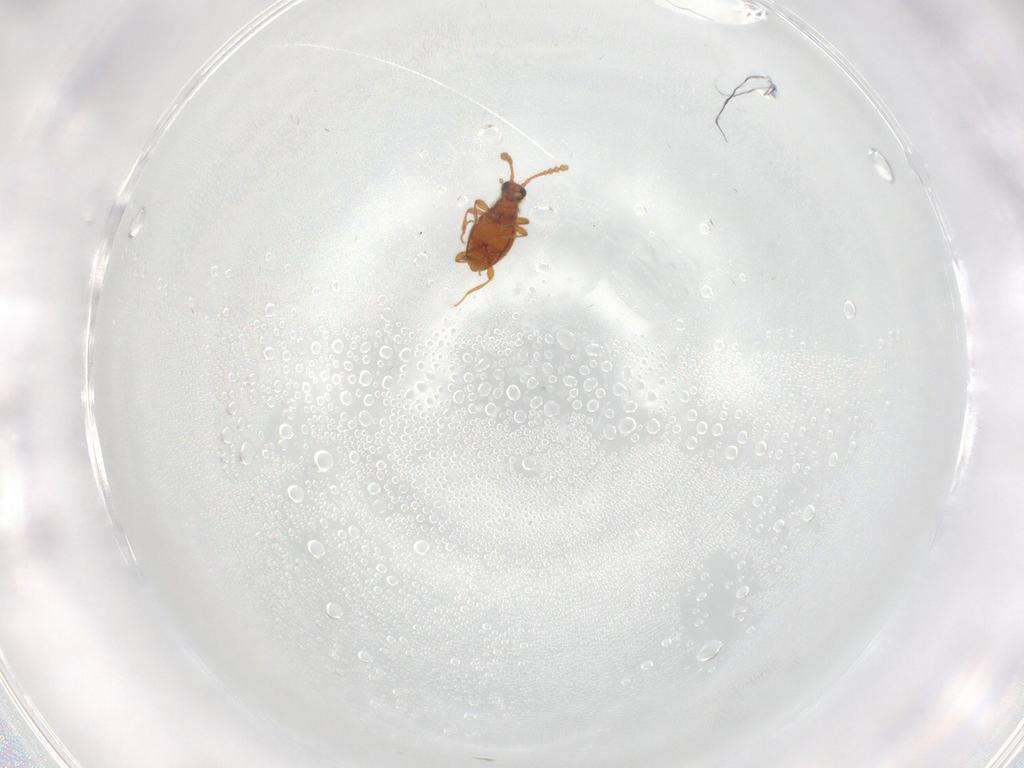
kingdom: Animalia
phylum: Arthropoda
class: Insecta
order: Coleoptera
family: Staphylinidae
